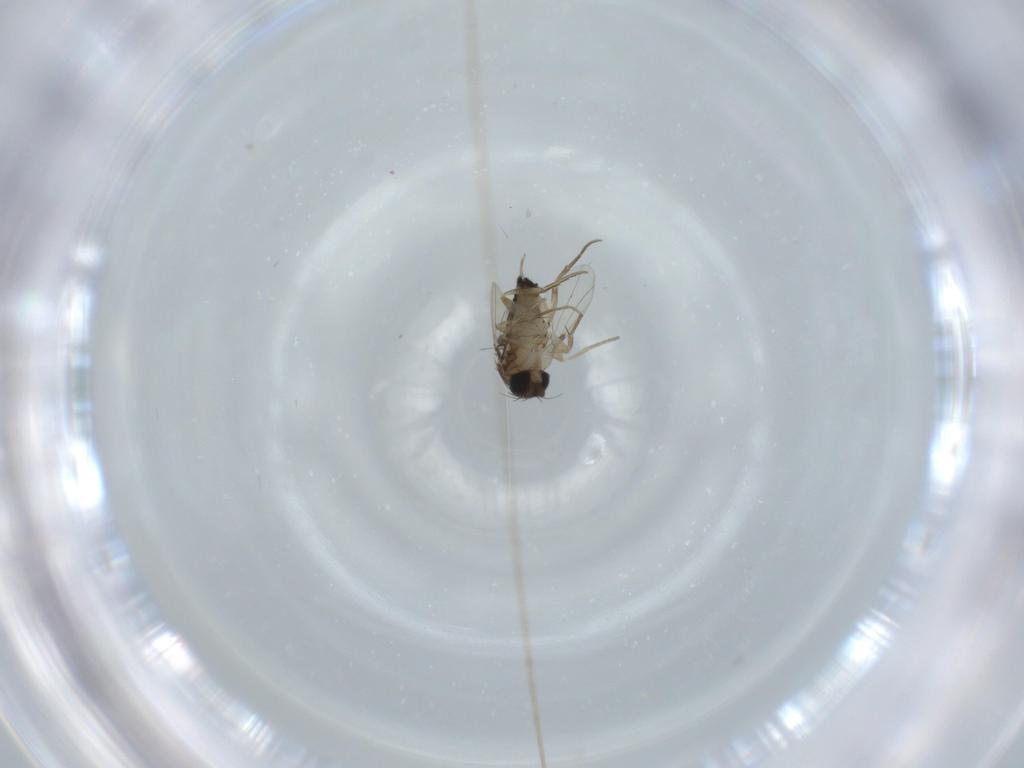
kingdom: Animalia
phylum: Arthropoda
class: Insecta
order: Diptera
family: Phoridae
